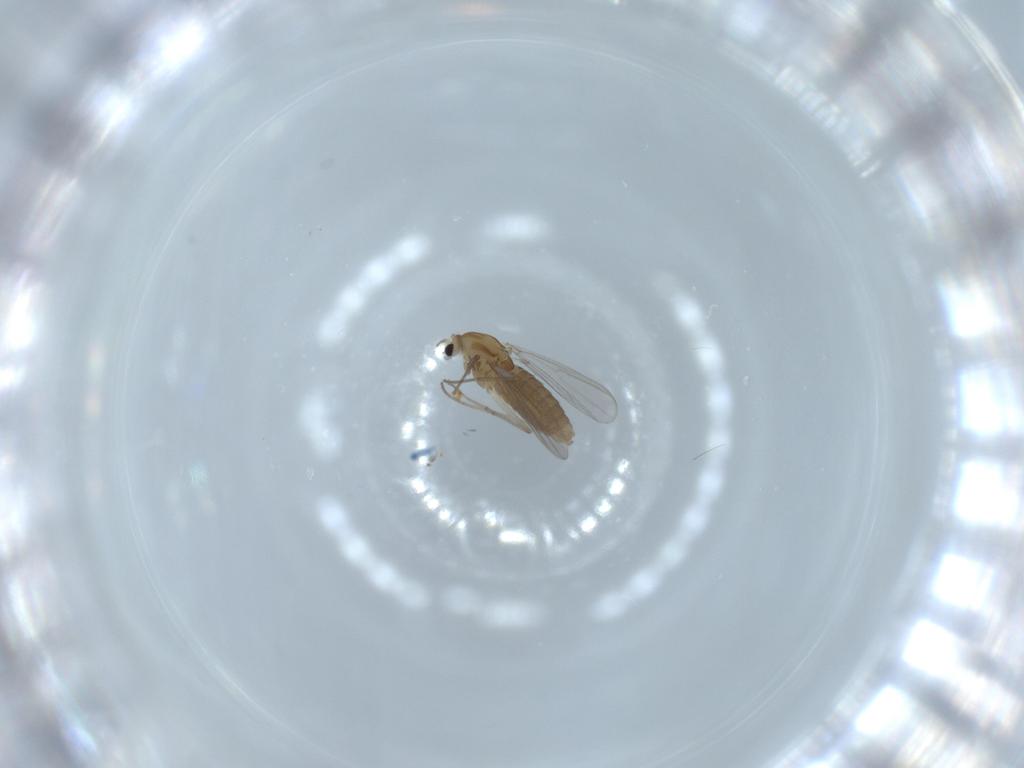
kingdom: Animalia
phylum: Arthropoda
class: Insecta
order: Diptera
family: Chironomidae
